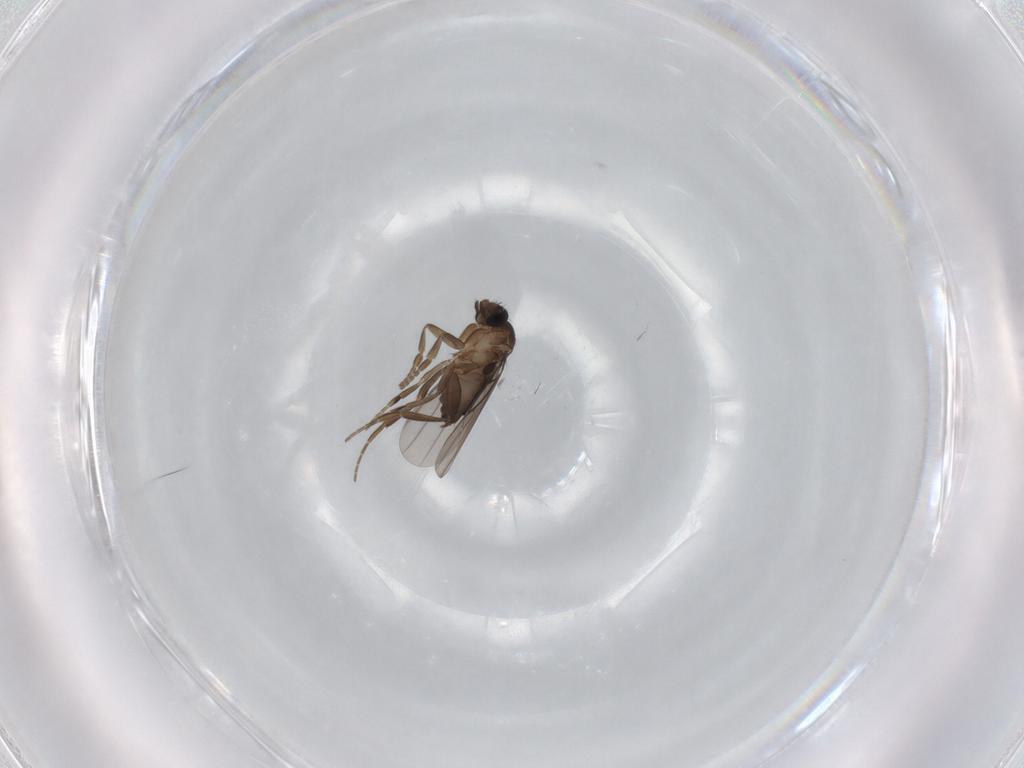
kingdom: Animalia
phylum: Arthropoda
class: Insecta
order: Diptera
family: Phoridae
